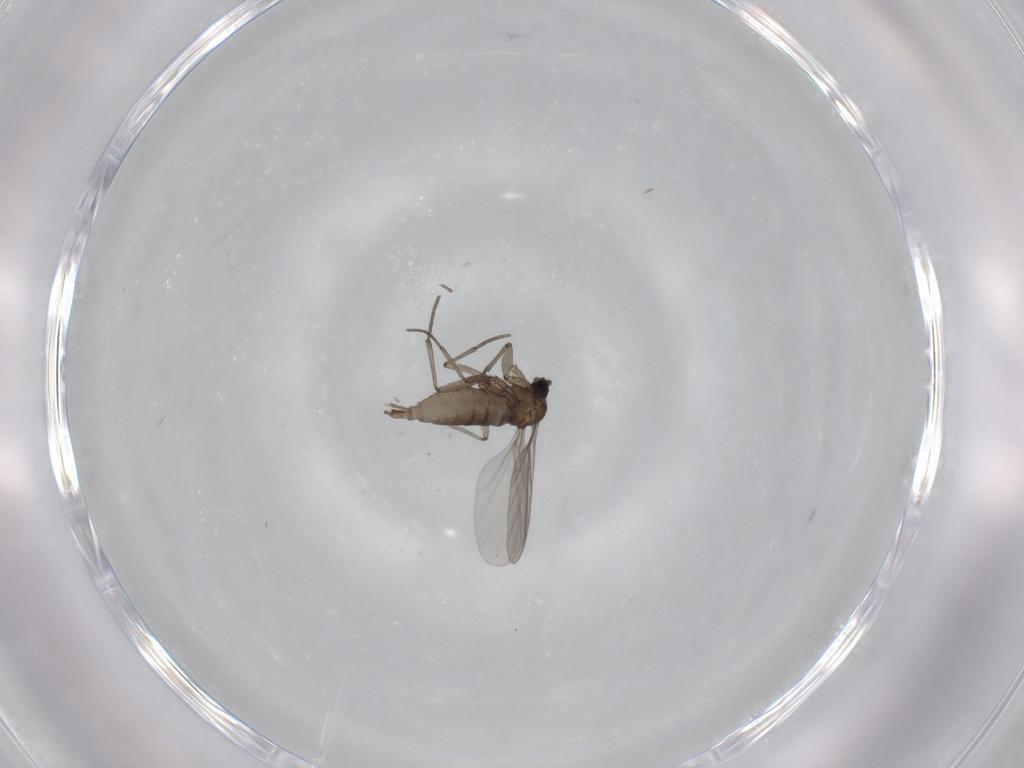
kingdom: Animalia
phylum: Arthropoda
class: Insecta
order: Diptera
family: Sciaridae
